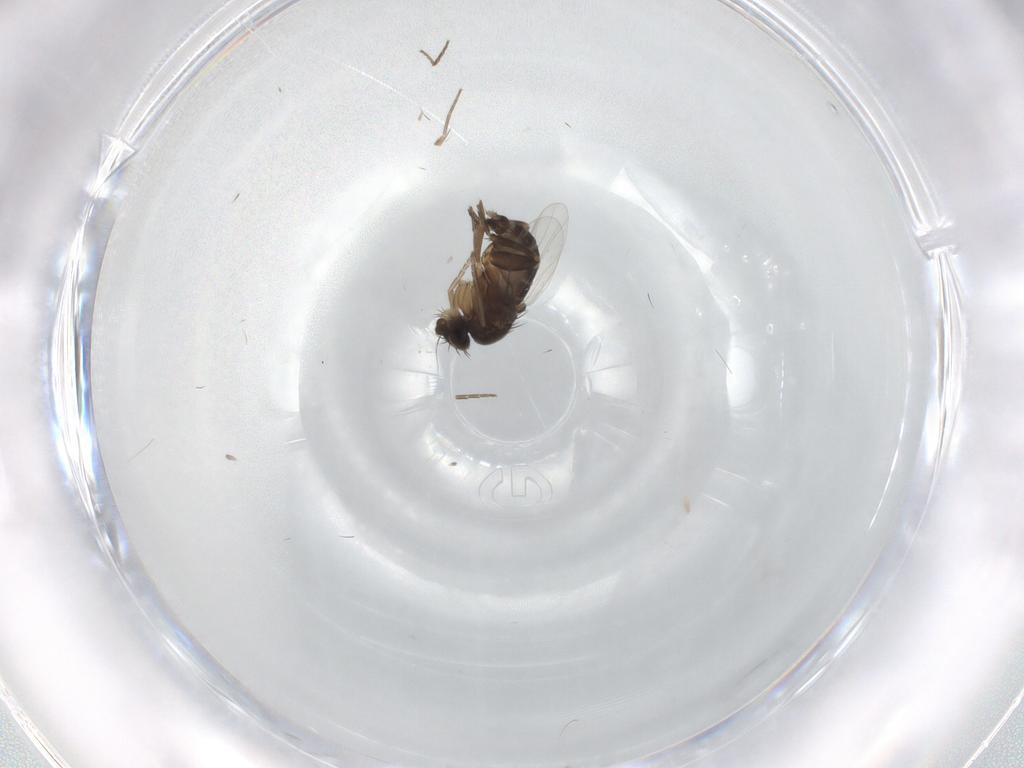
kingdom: Animalia
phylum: Arthropoda
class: Insecta
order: Diptera
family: Phoridae
